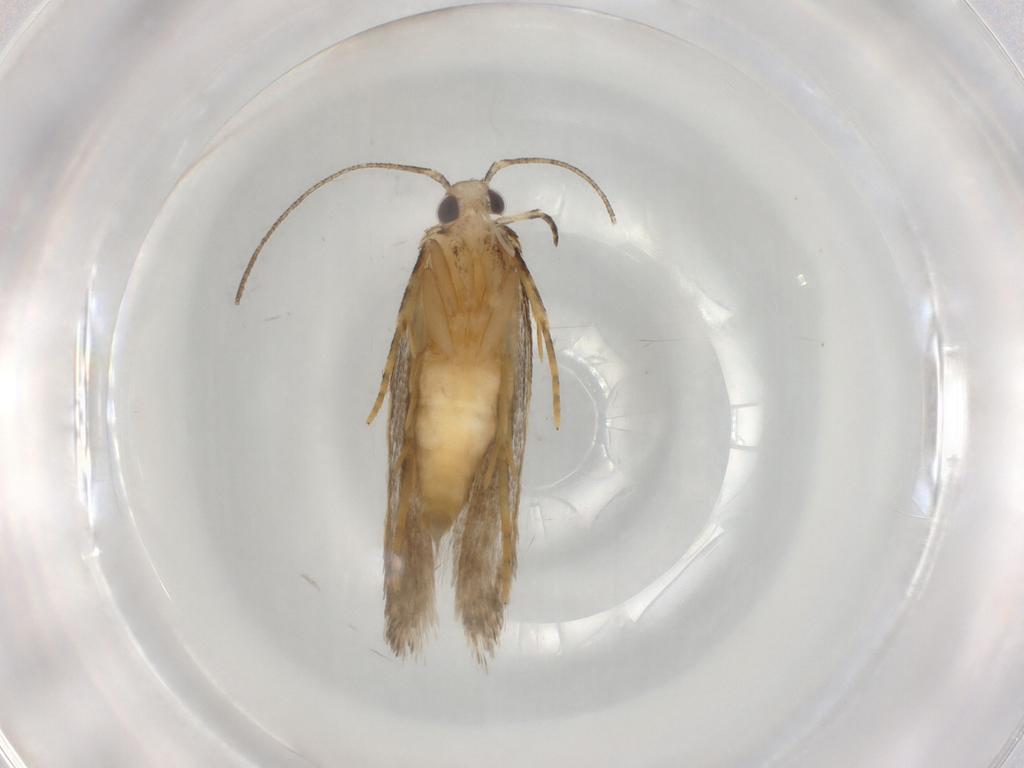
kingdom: Animalia
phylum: Arthropoda
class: Insecta
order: Lepidoptera
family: Autostichidae
